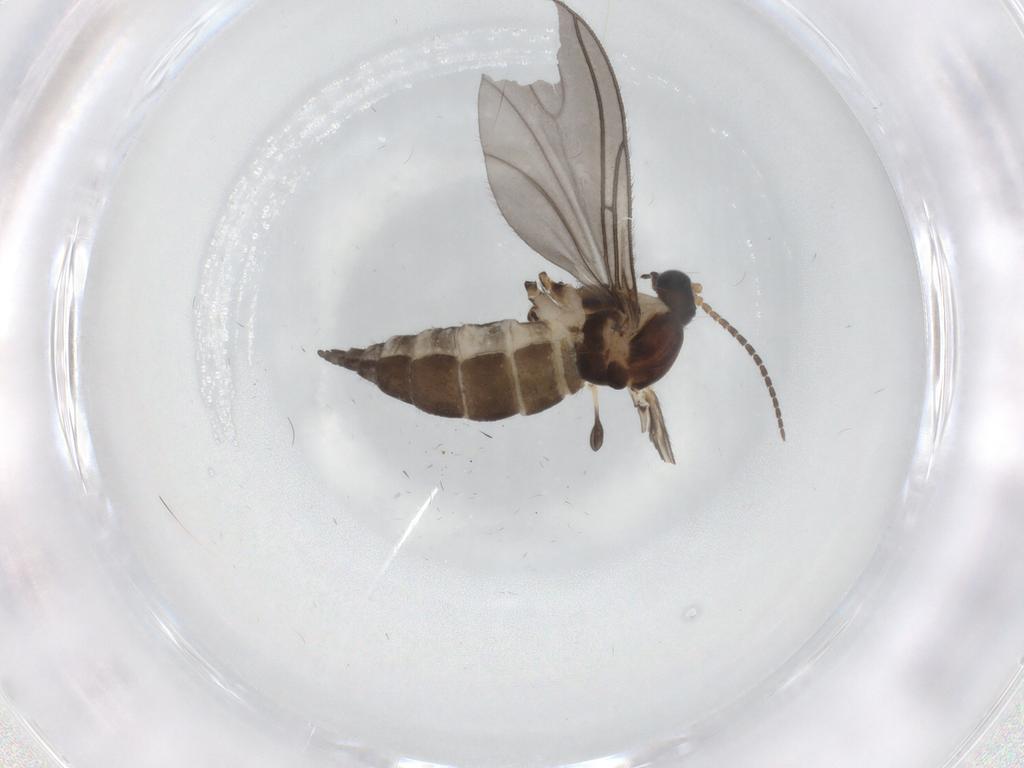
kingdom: Animalia
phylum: Arthropoda
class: Insecta
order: Diptera
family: Sciaridae
